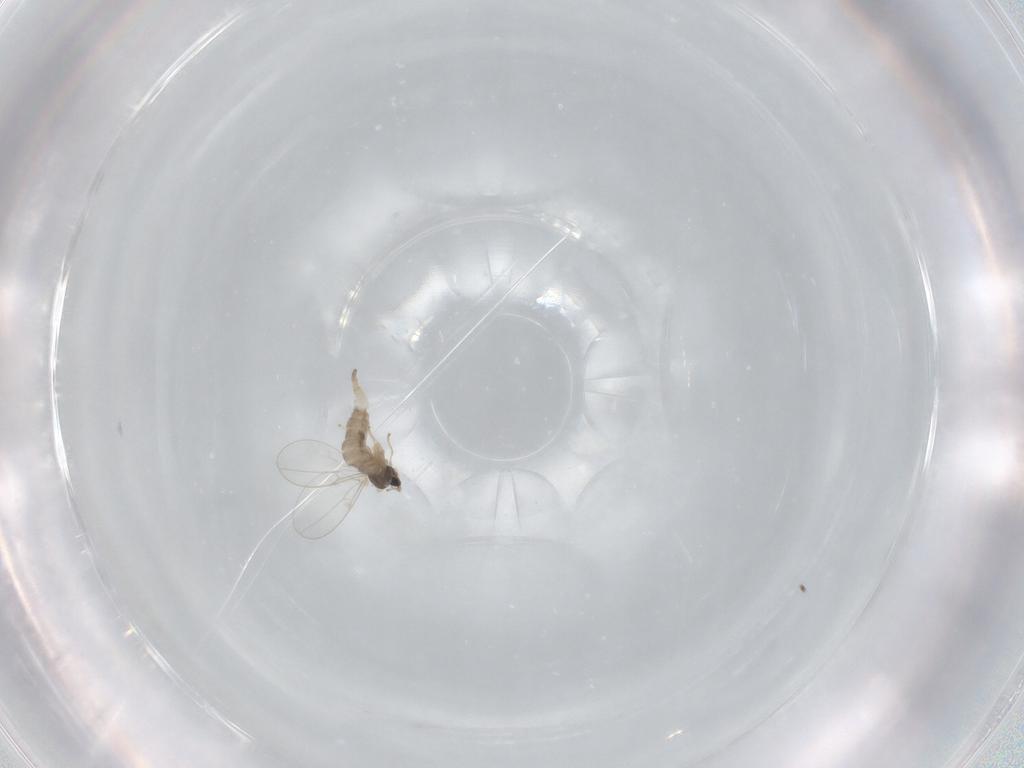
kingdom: Animalia
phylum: Arthropoda
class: Insecta
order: Diptera
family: Cecidomyiidae
